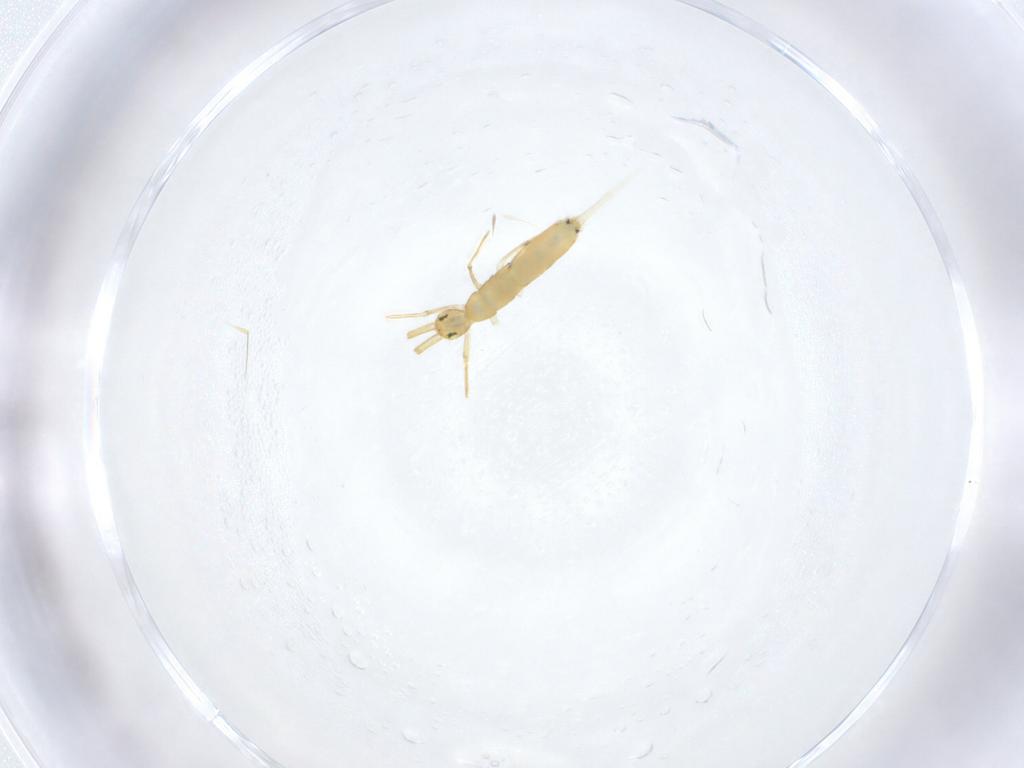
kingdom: Animalia
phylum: Arthropoda
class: Collembola
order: Entomobryomorpha
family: Entomobryidae
